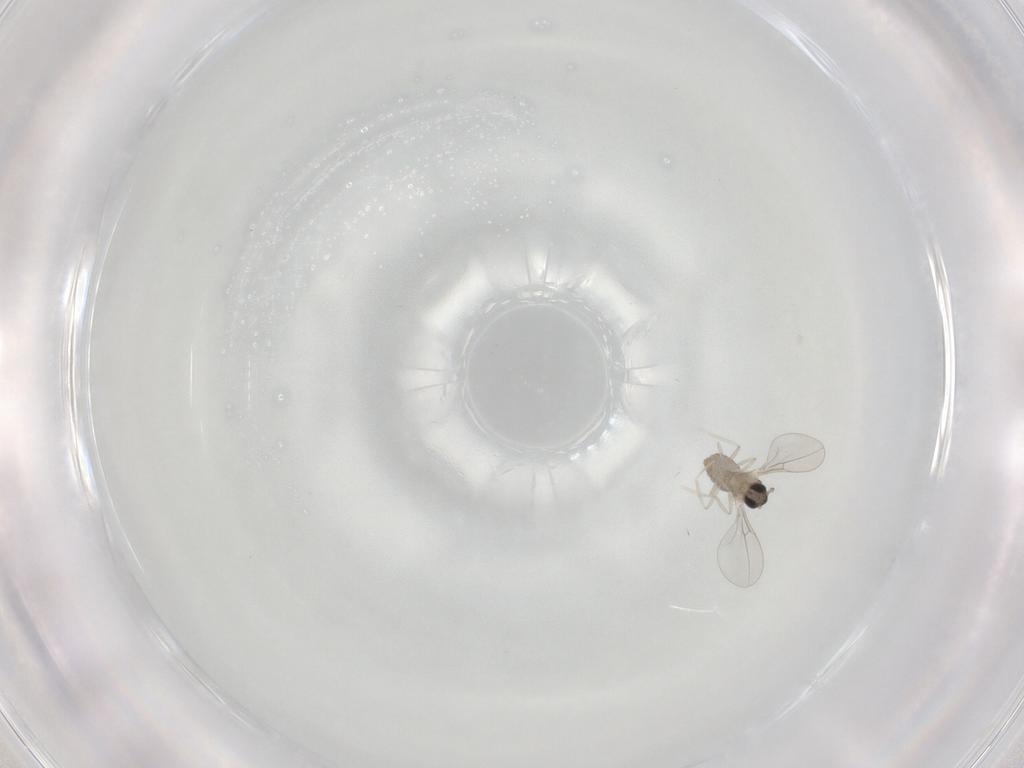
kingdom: Animalia
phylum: Arthropoda
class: Insecta
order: Diptera
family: Cecidomyiidae
